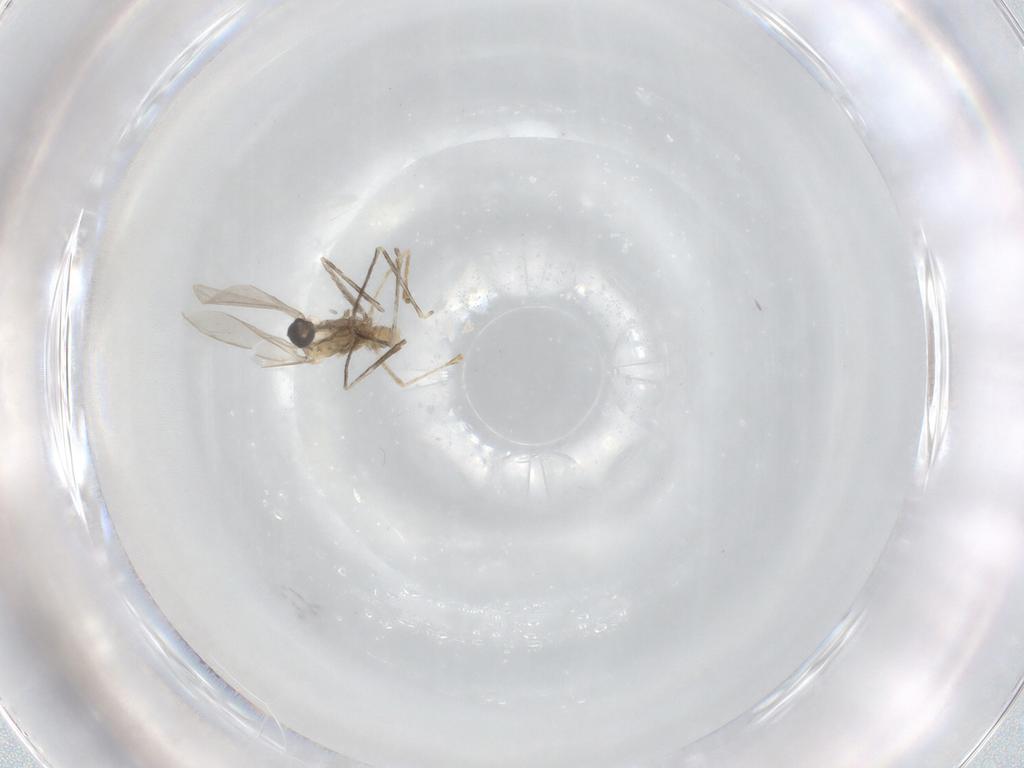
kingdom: Animalia
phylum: Arthropoda
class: Insecta
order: Diptera
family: Cecidomyiidae
